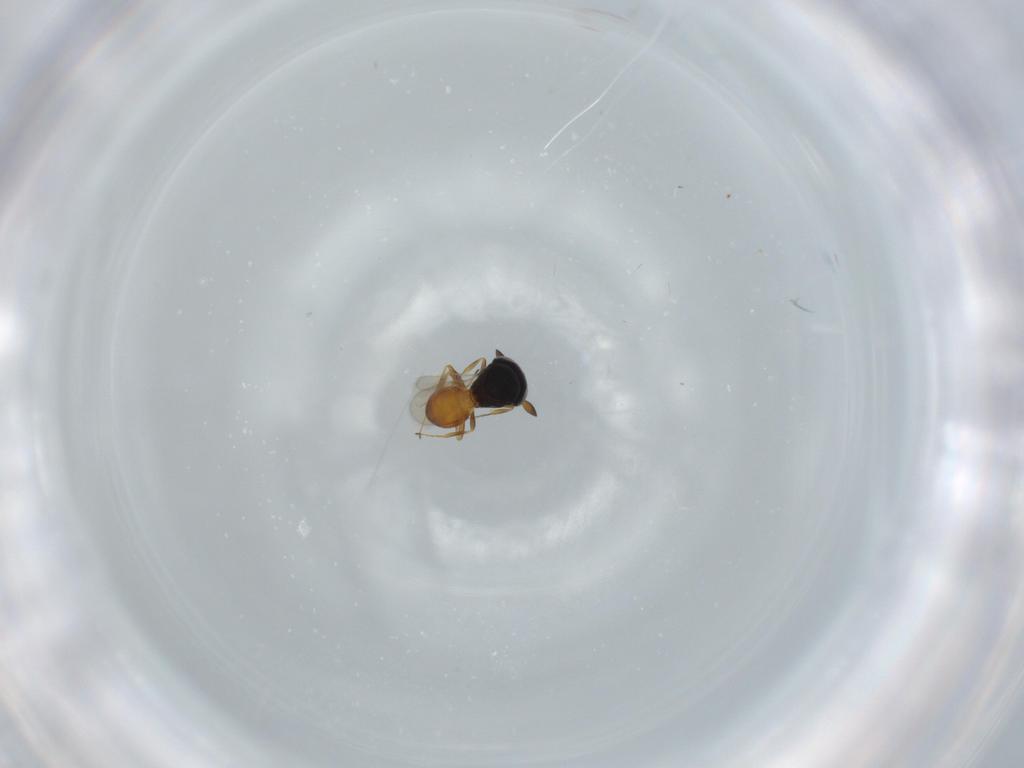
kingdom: Animalia
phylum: Arthropoda
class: Insecta
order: Hymenoptera
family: Scelionidae
